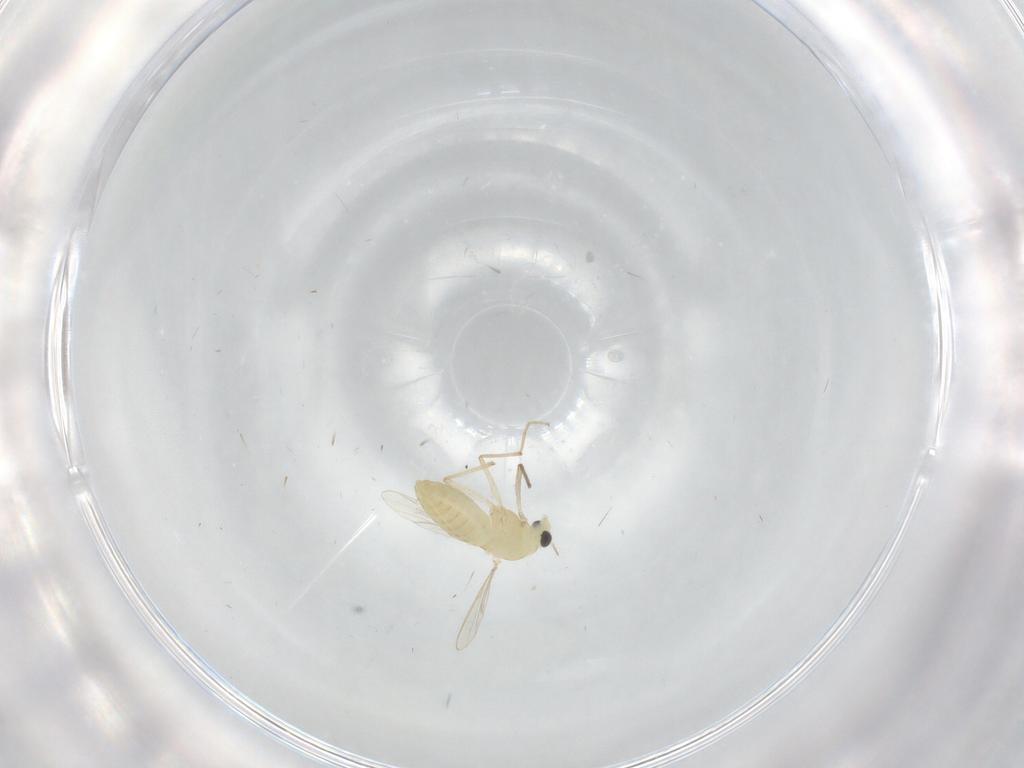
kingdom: Animalia
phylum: Arthropoda
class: Insecta
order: Diptera
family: Chironomidae
